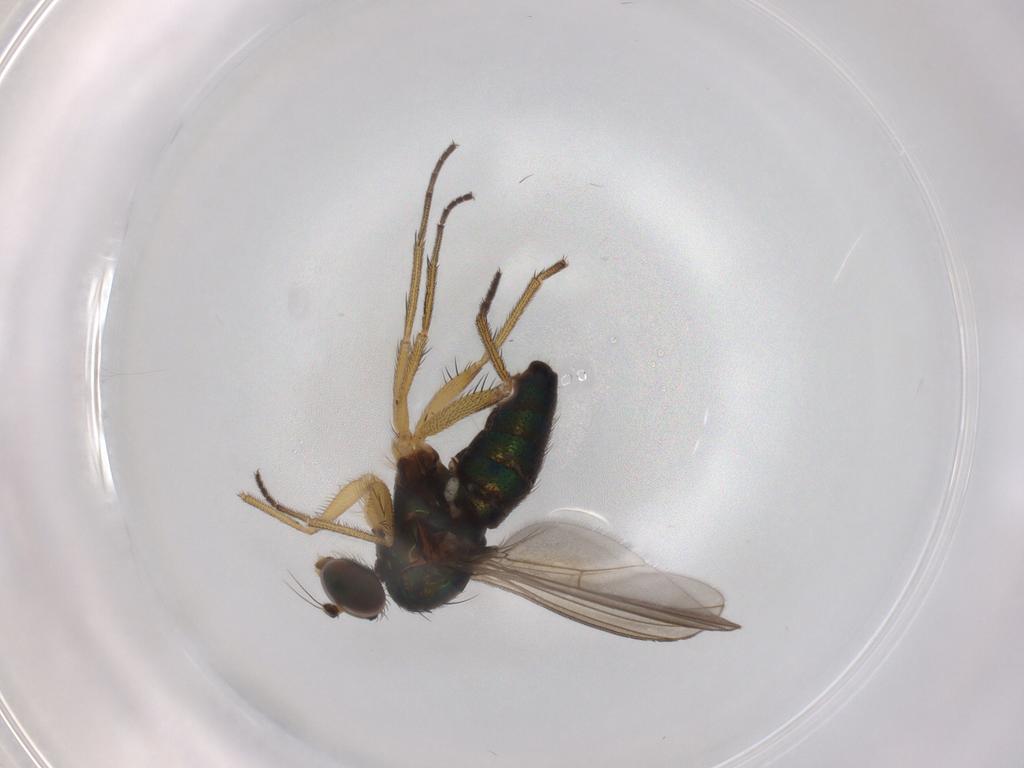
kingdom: Animalia
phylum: Arthropoda
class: Insecta
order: Diptera
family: Dolichopodidae
